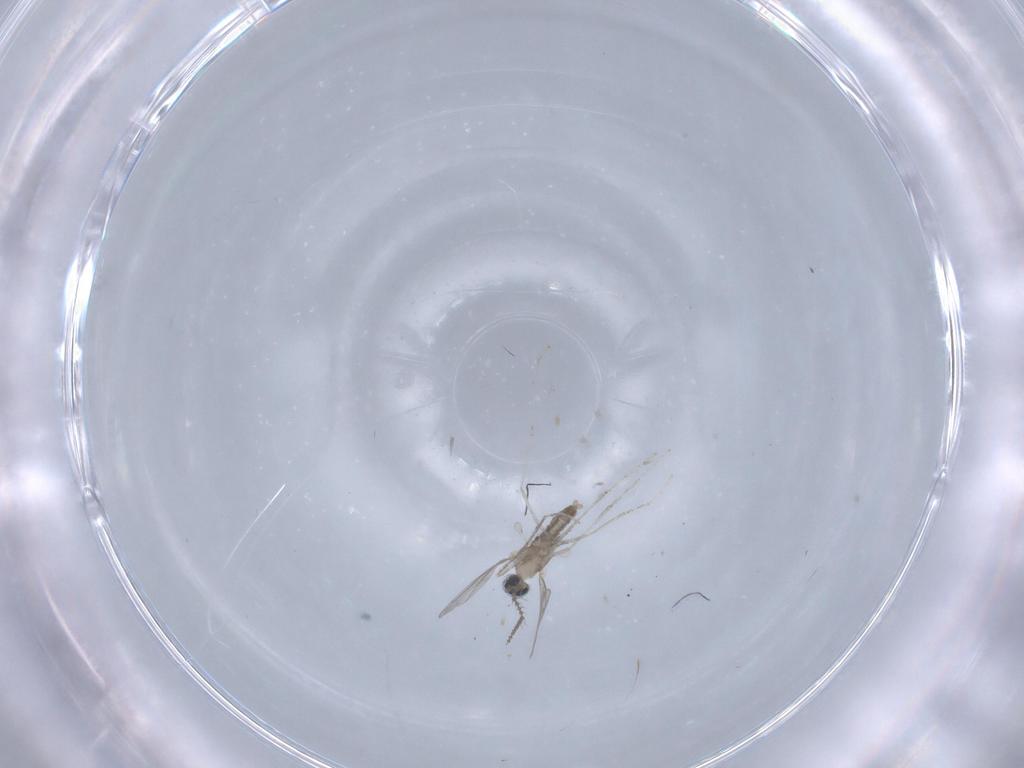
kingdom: Animalia
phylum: Arthropoda
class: Insecta
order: Diptera
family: Cecidomyiidae
